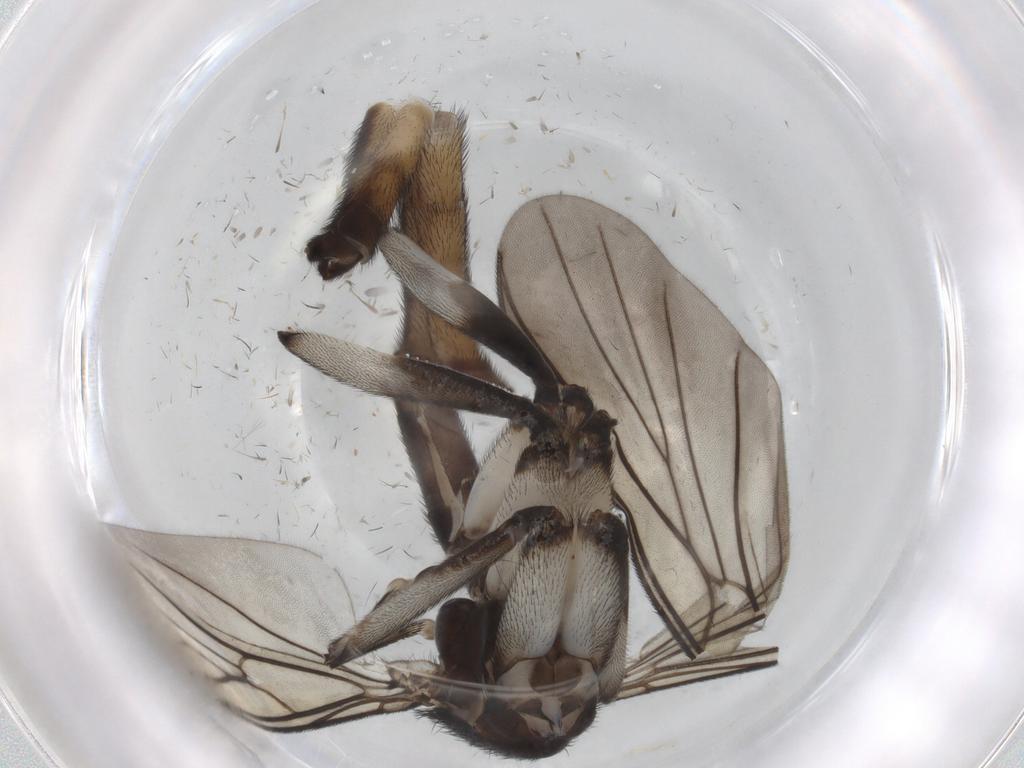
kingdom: Animalia
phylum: Arthropoda
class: Insecta
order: Diptera
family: Keroplatidae
